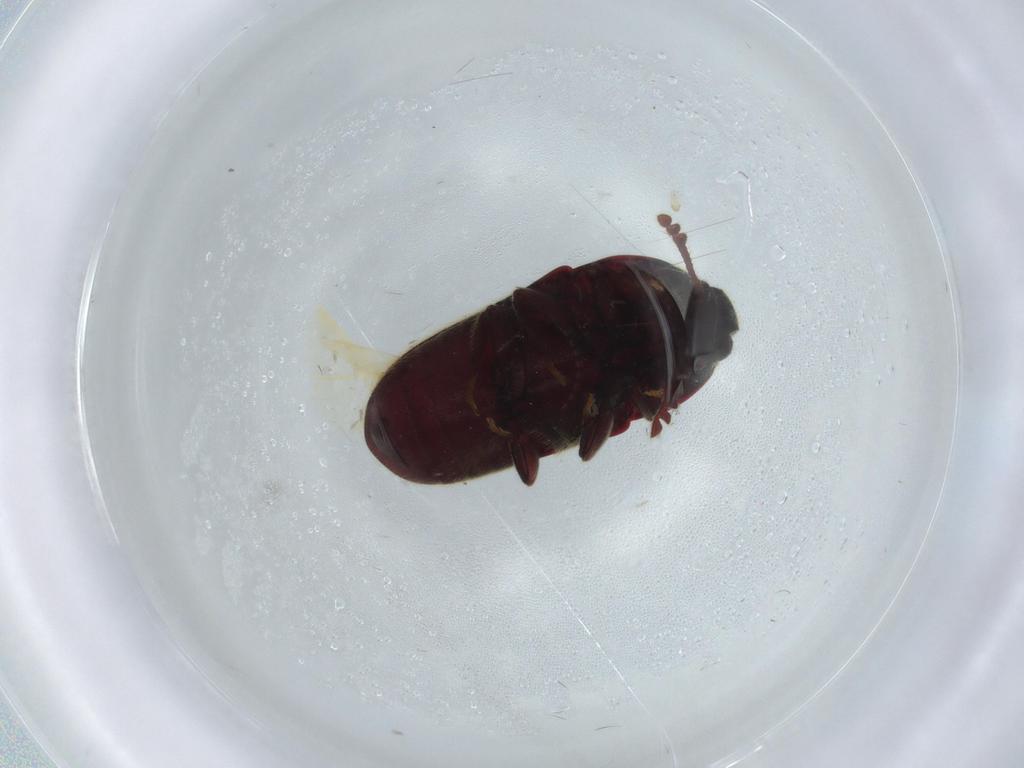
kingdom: Animalia
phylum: Arthropoda
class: Insecta
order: Coleoptera
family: Throscidae
